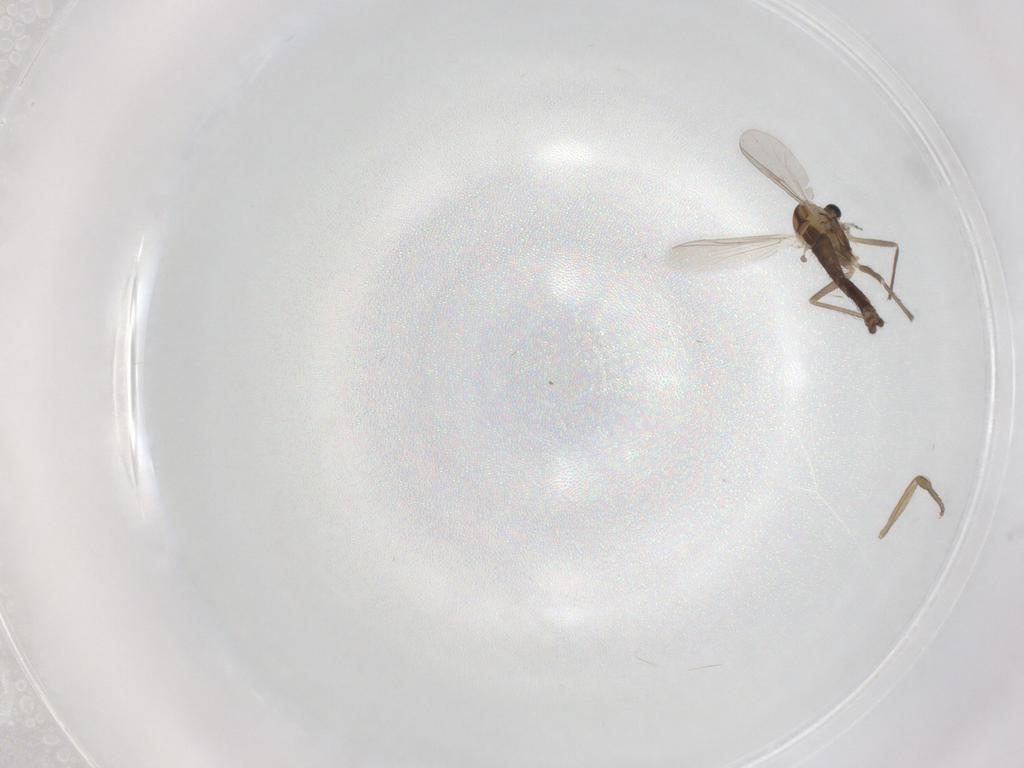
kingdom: Animalia
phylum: Arthropoda
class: Insecta
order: Diptera
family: Chironomidae
